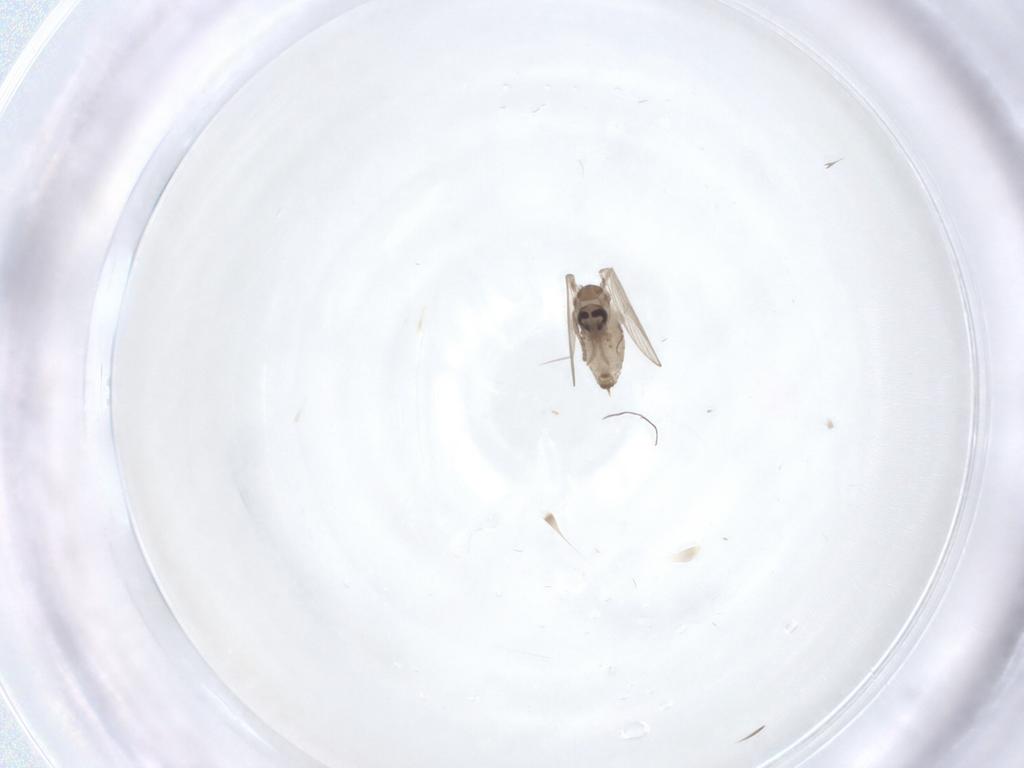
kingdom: Animalia
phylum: Arthropoda
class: Insecta
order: Diptera
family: Psychodidae
